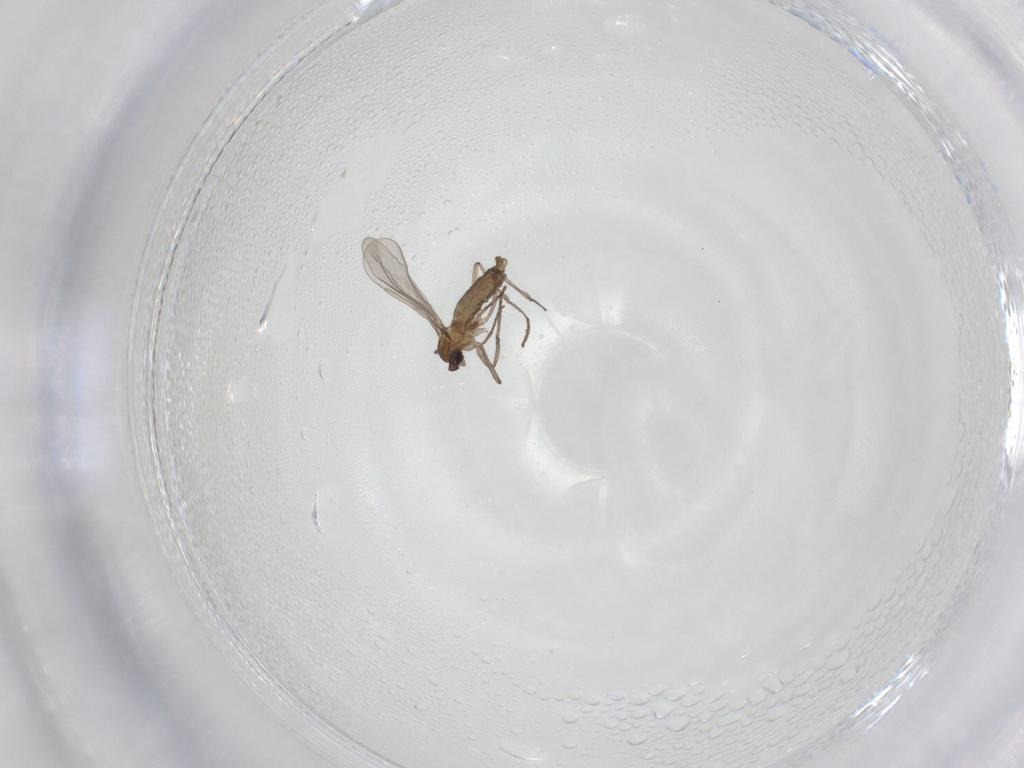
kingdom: Animalia
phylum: Arthropoda
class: Insecta
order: Diptera
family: Cecidomyiidae
